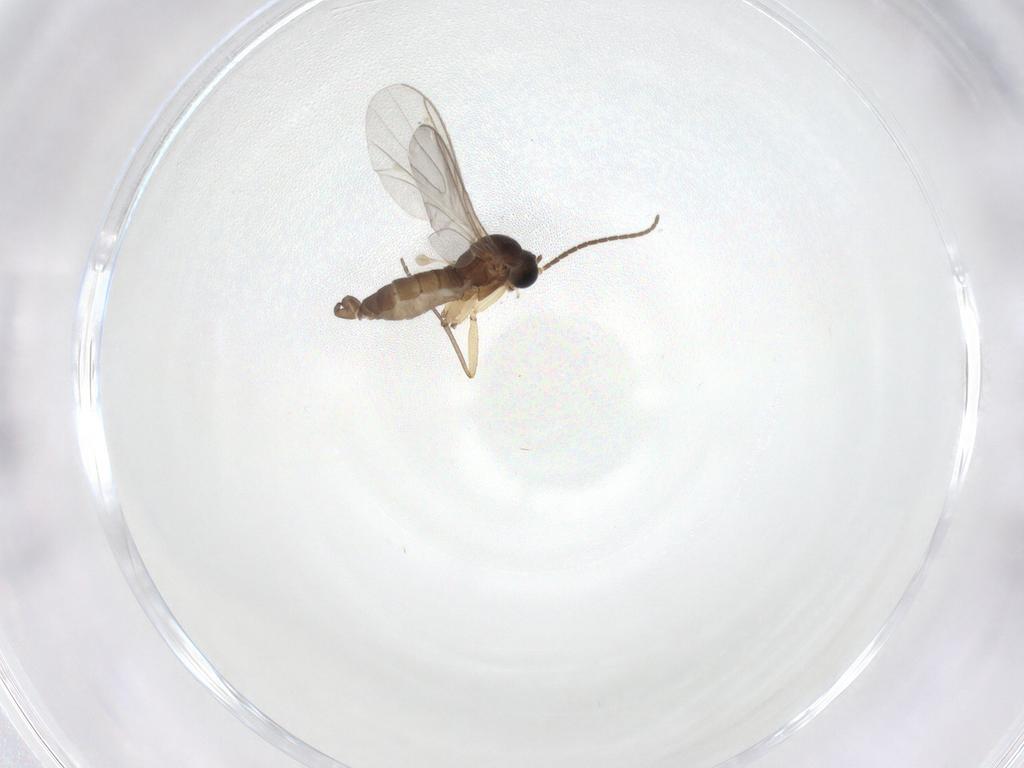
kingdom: Animalia
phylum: Arthropoda
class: Insecta
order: Diptera
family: Sciaridae
